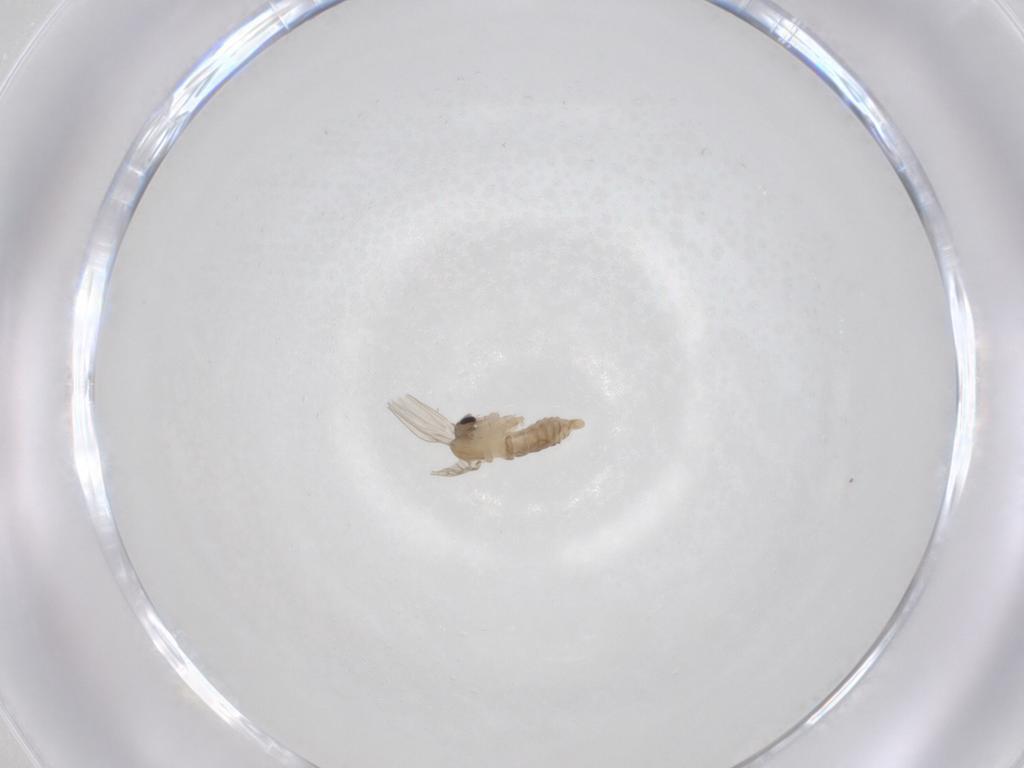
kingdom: Animalia
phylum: Arthropoda
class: Insecta
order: Diptera
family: Psychodidae
